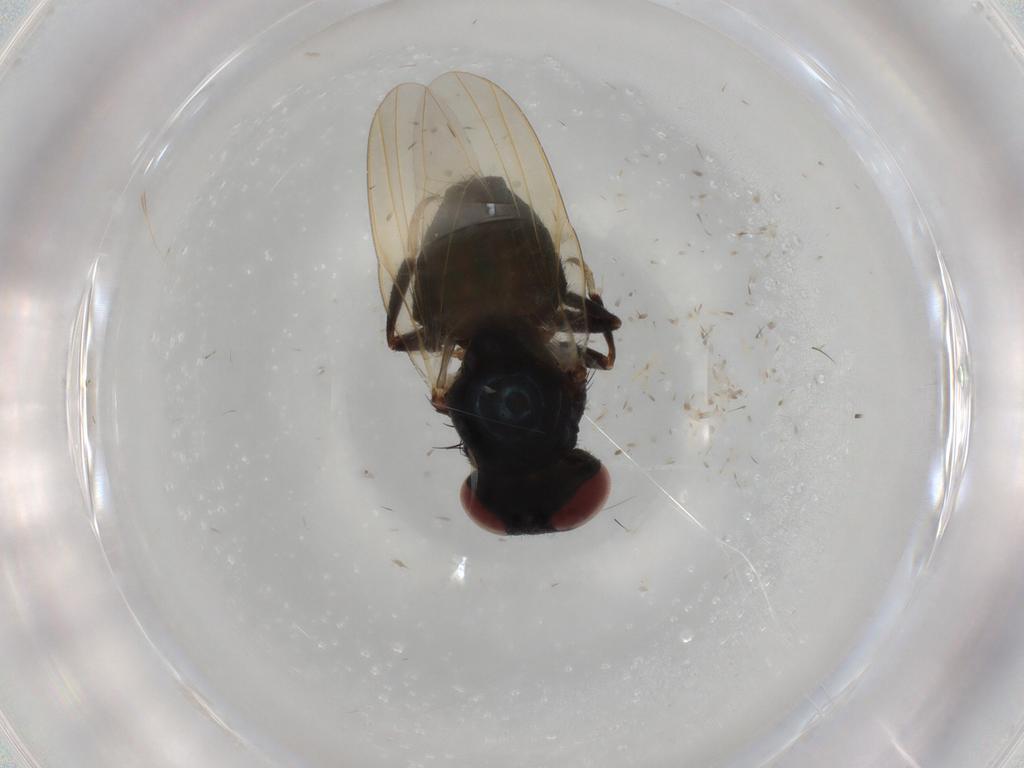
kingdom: Animalia
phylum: Arthropoda
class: Insecta
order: Diptera
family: Lonchaeidae
